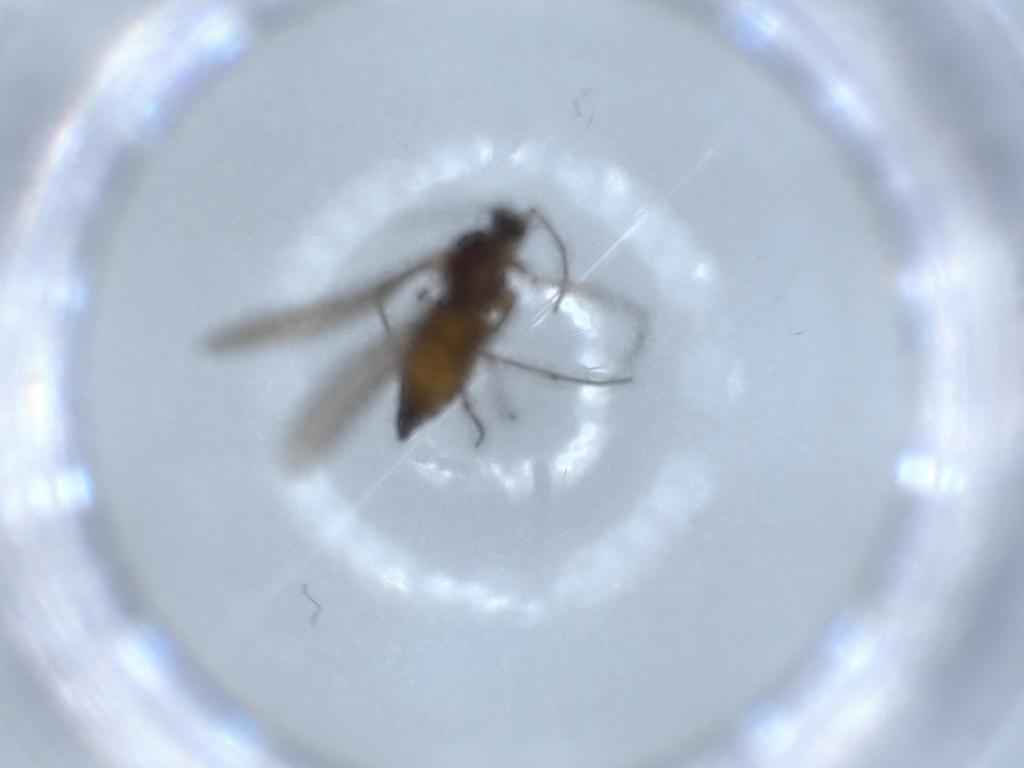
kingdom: Animalia
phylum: Arthropoda
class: Insecta
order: Diptera
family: Sciaridae
